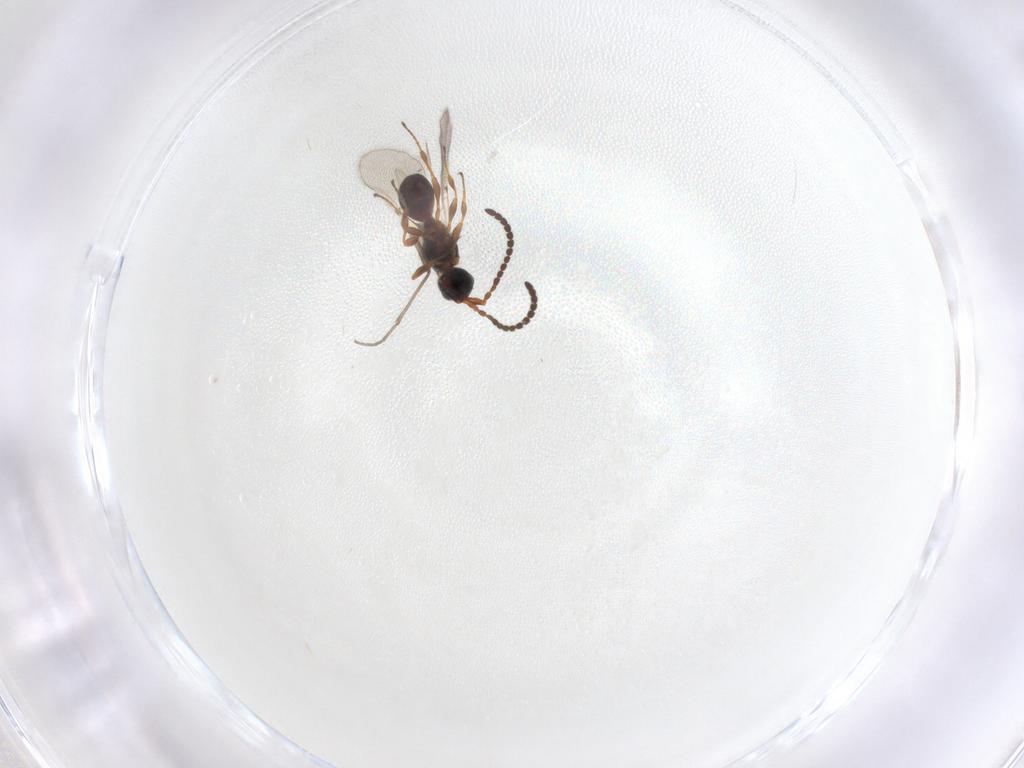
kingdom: Animalia
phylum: Arthropoda
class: Insecta
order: Hymenoptera
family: Diapriidae
